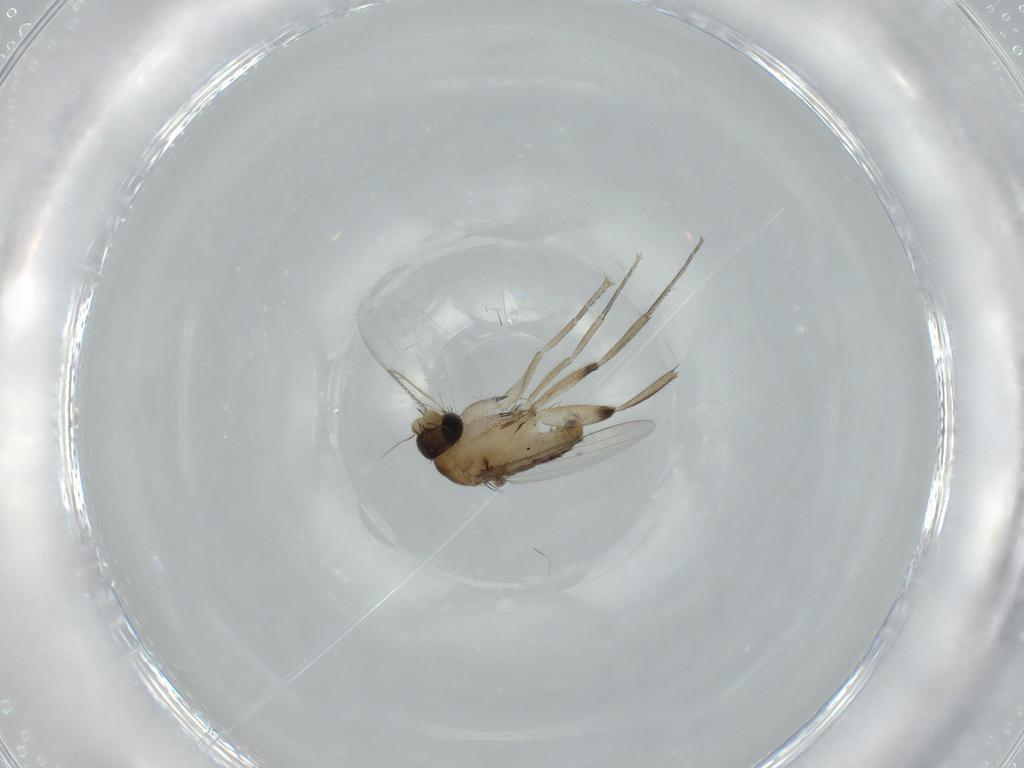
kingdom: Animalia
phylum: Arthropoda
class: Insecta
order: Diptera
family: Phoridae
